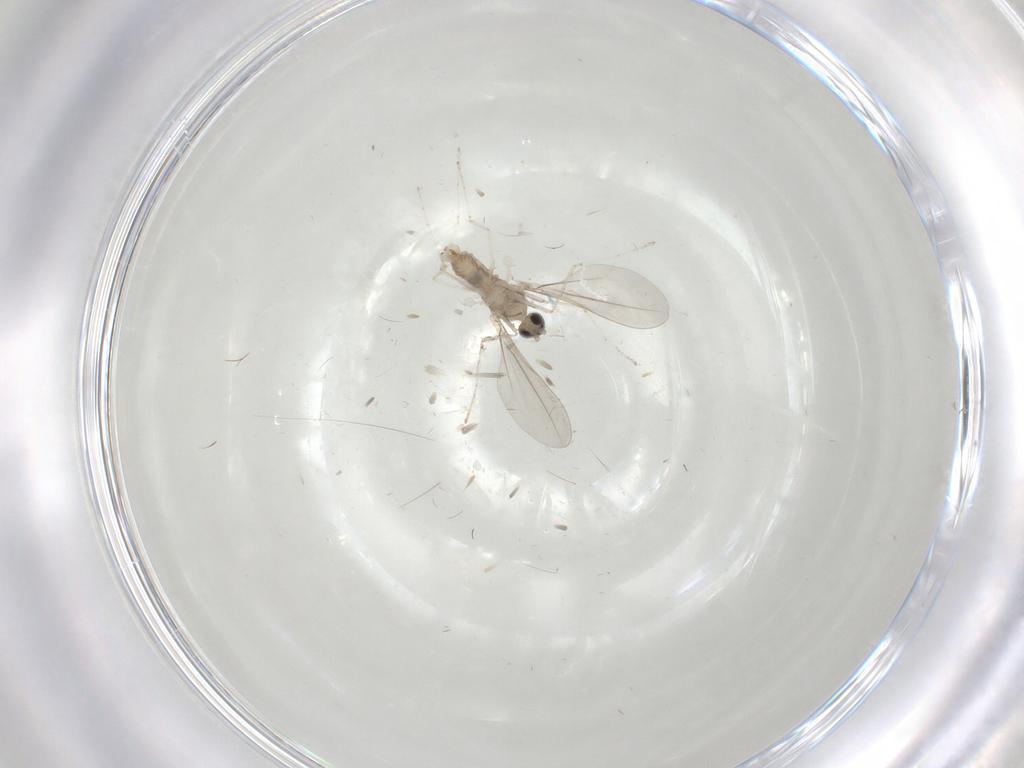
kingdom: Animalia
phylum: Arthropoda
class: Insecta
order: Diptera
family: Cecidomyiidae
